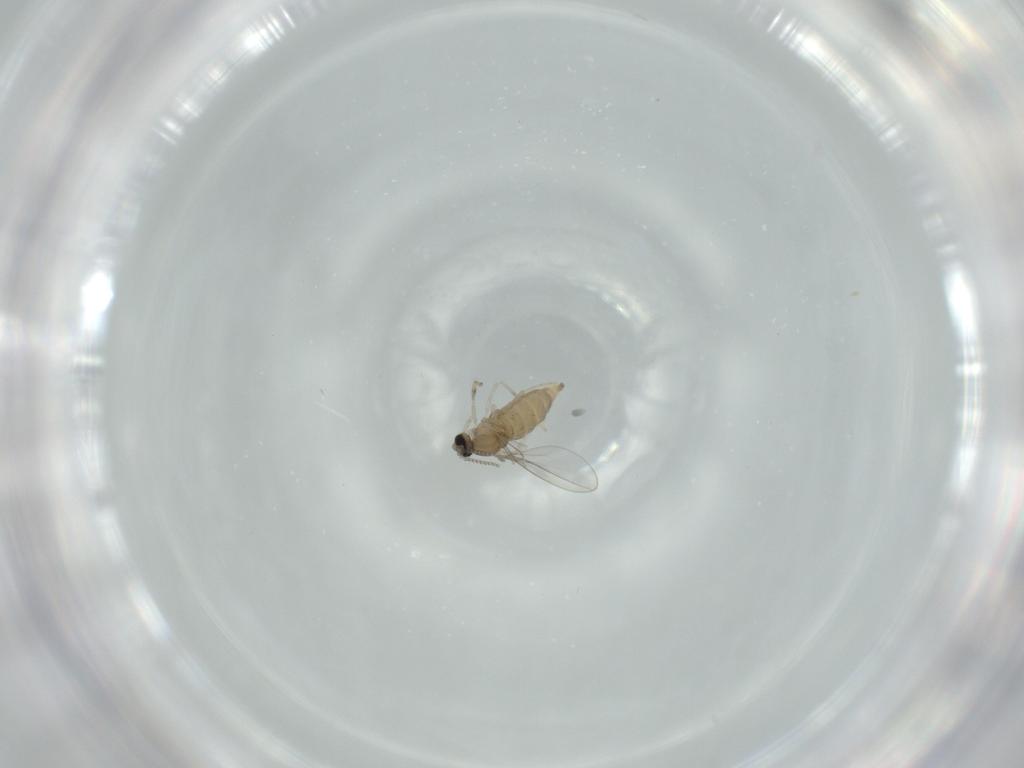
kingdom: Animalia
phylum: Arthropoda
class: Insecta
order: Diptera
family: Cecidomyiidae
